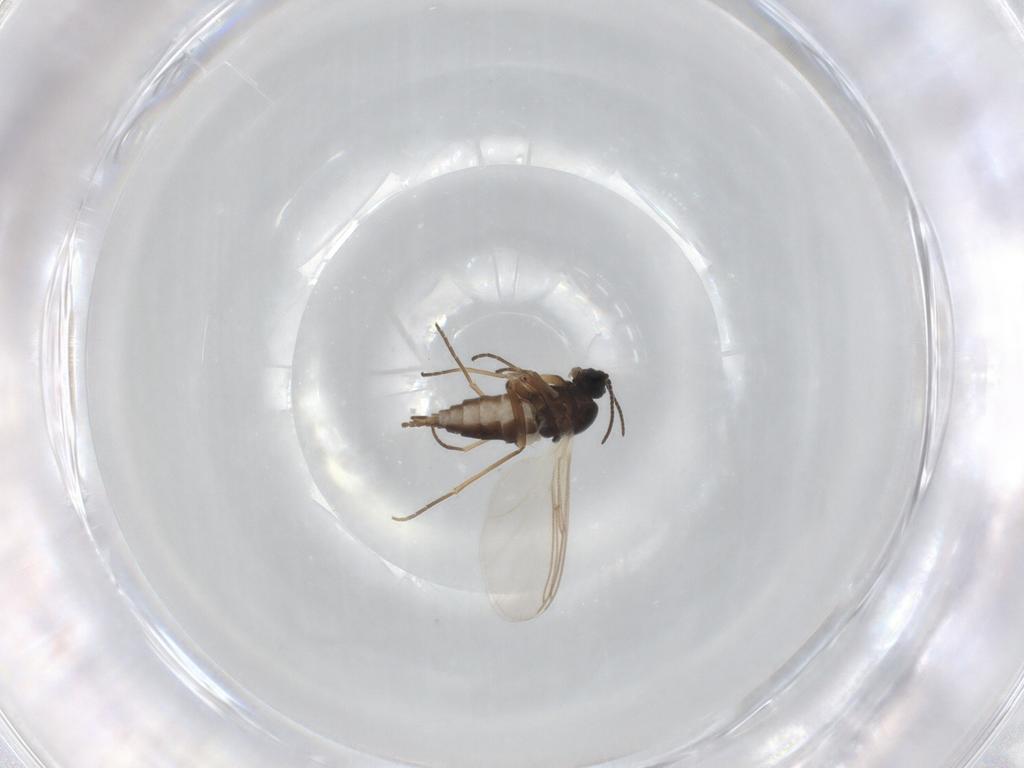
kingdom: Animalia
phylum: Arthropoda
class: Insecta
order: Diptera
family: Sciaridae
